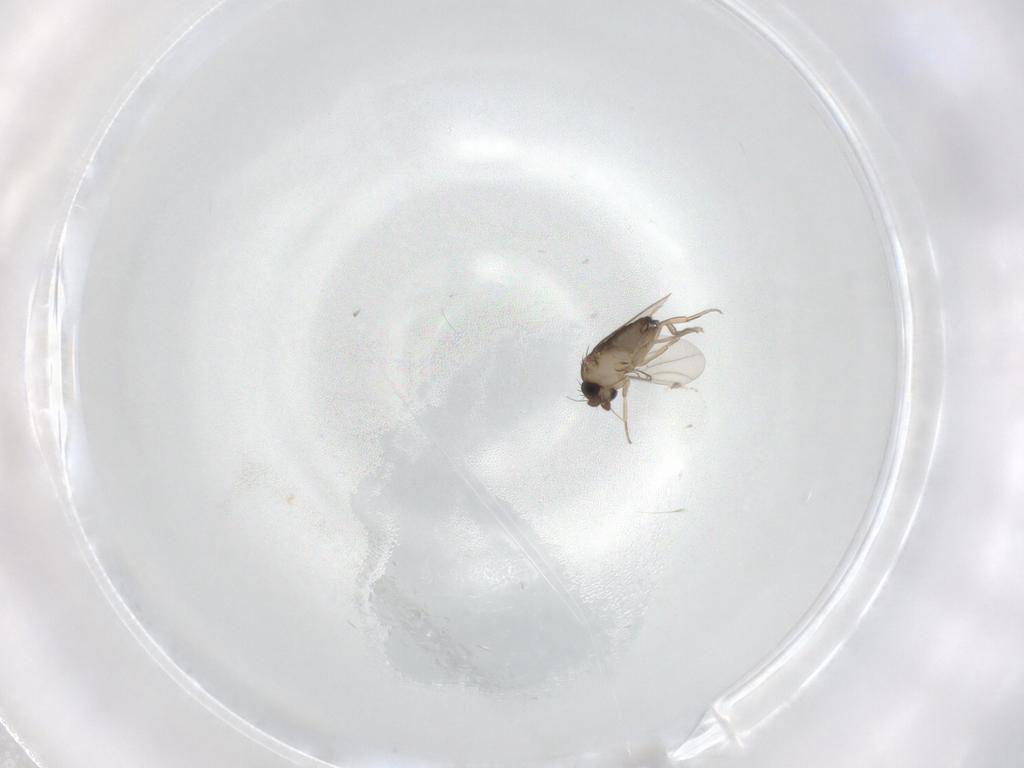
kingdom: Animalia
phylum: Arthropoda
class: Insecta
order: Diptera
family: Phoridae
